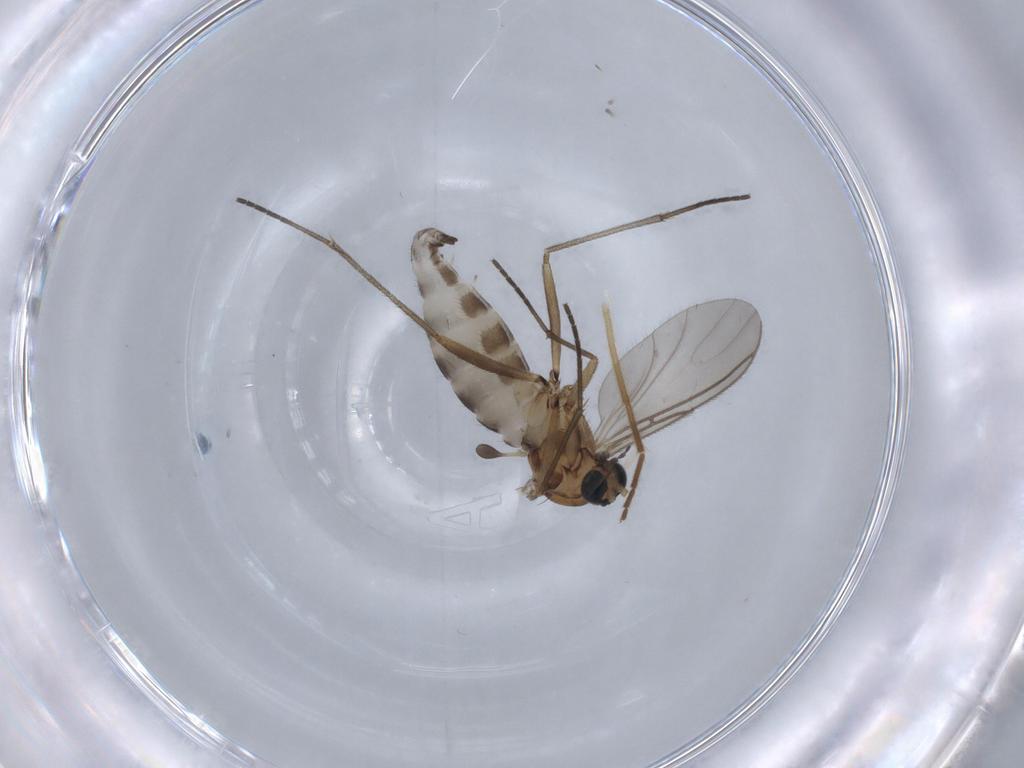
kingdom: Animalia
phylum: Arthropoda
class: Insecta
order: Diptera
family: Sciaridae
